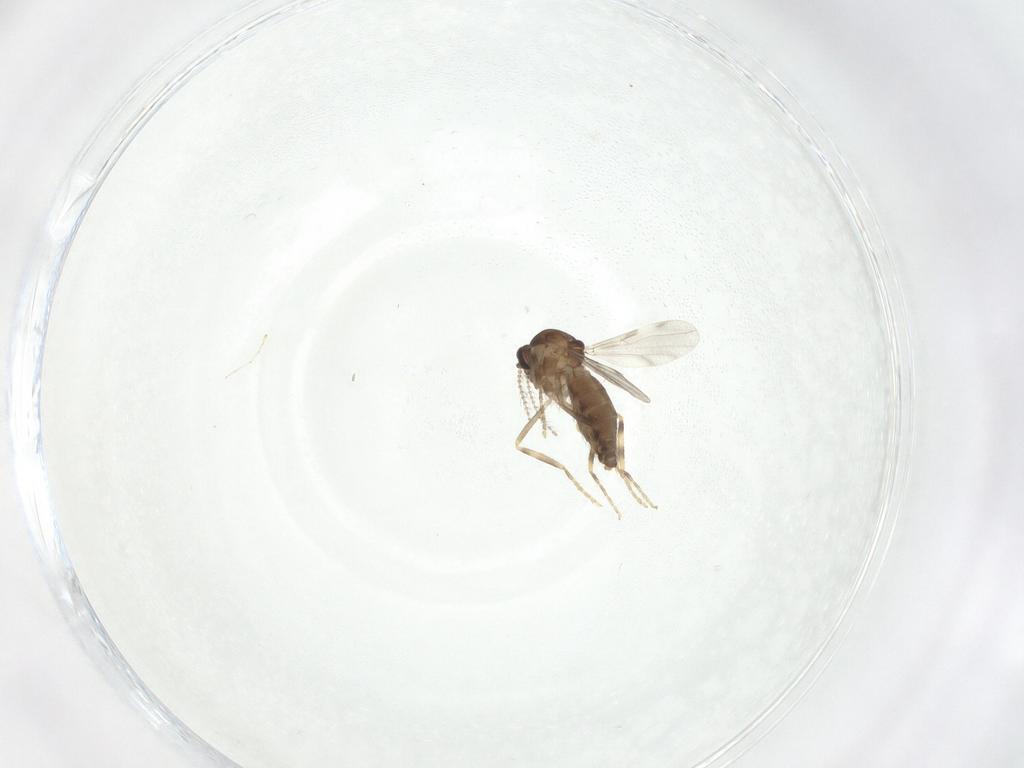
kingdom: Animalia
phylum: Arthropoda
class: Insecta
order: Diptera
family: Ceratopogonidae
